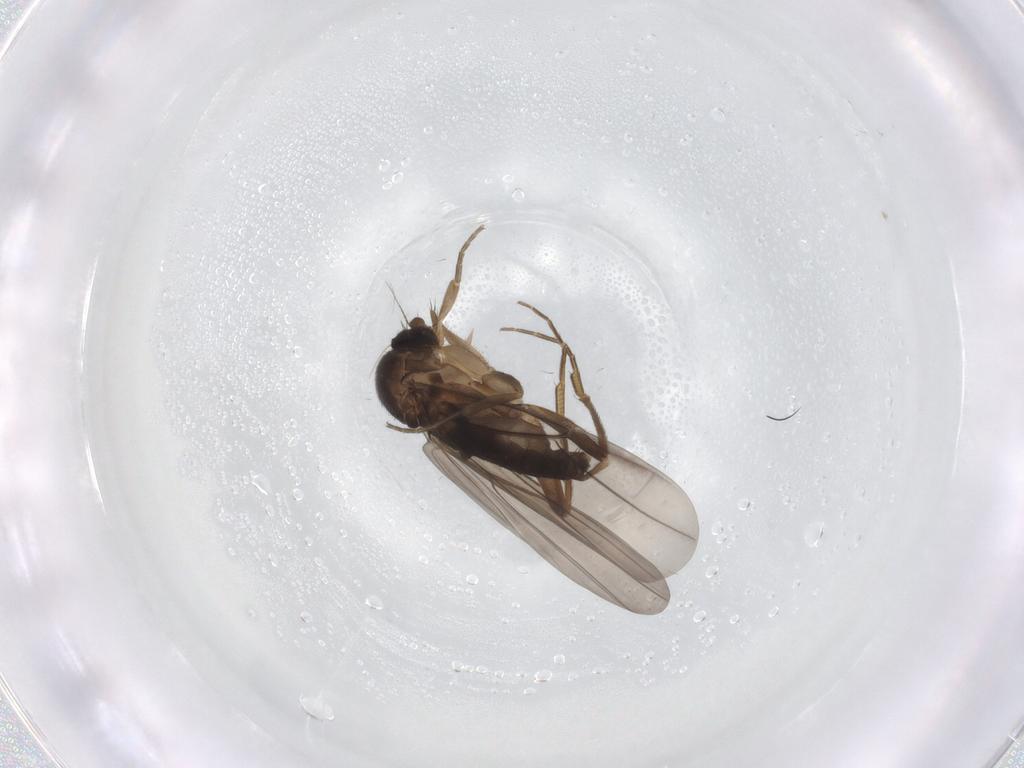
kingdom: Animalia
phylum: Arthropoda
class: Insecta
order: Diptera
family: Phoridae
